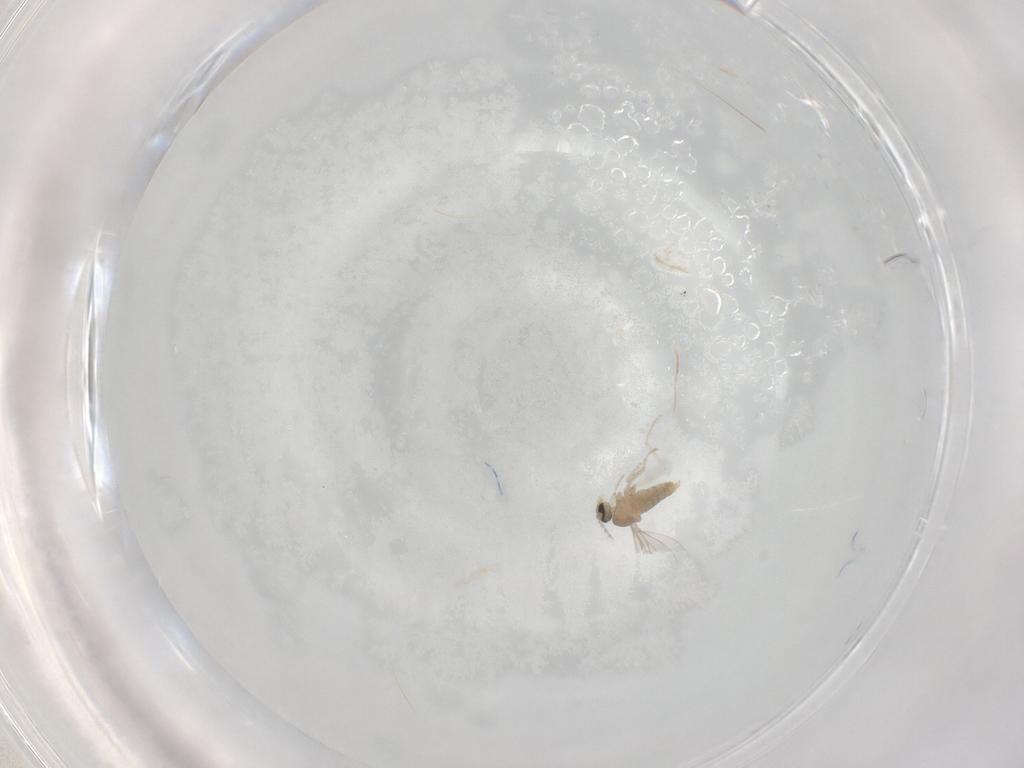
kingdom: Animalia
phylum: Arthropoda
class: Insecta
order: Diptera
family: Cecidomyiidae
